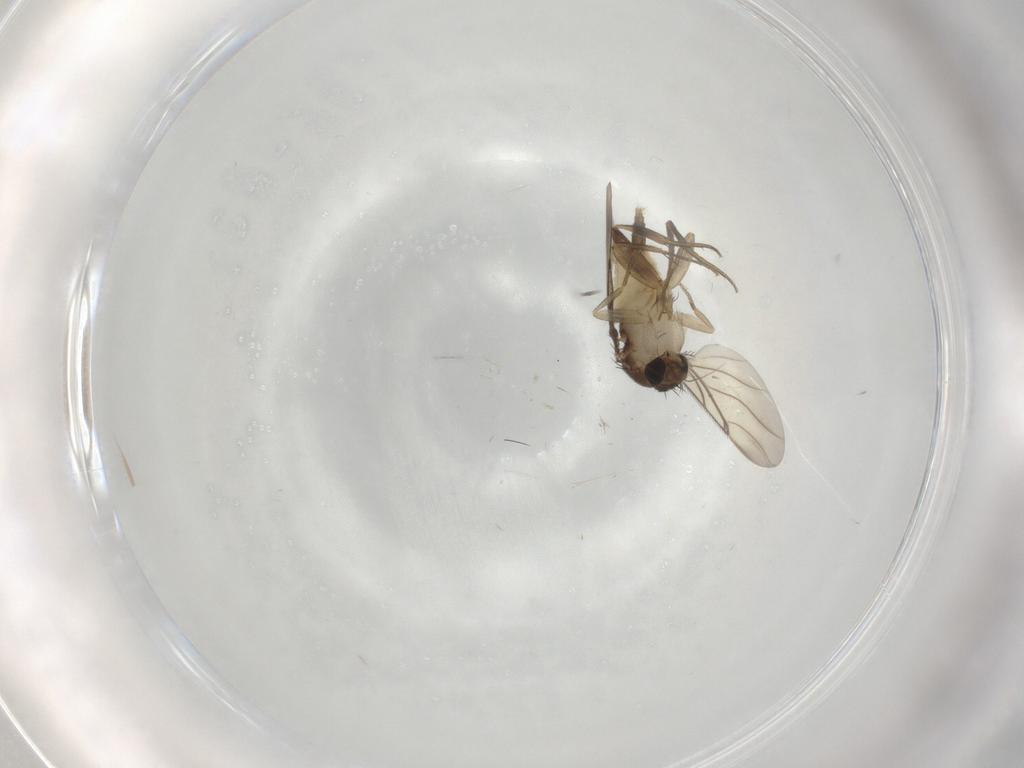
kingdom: Animalia
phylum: Arthropoda
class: Insecta
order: Diptera
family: Phoridae
